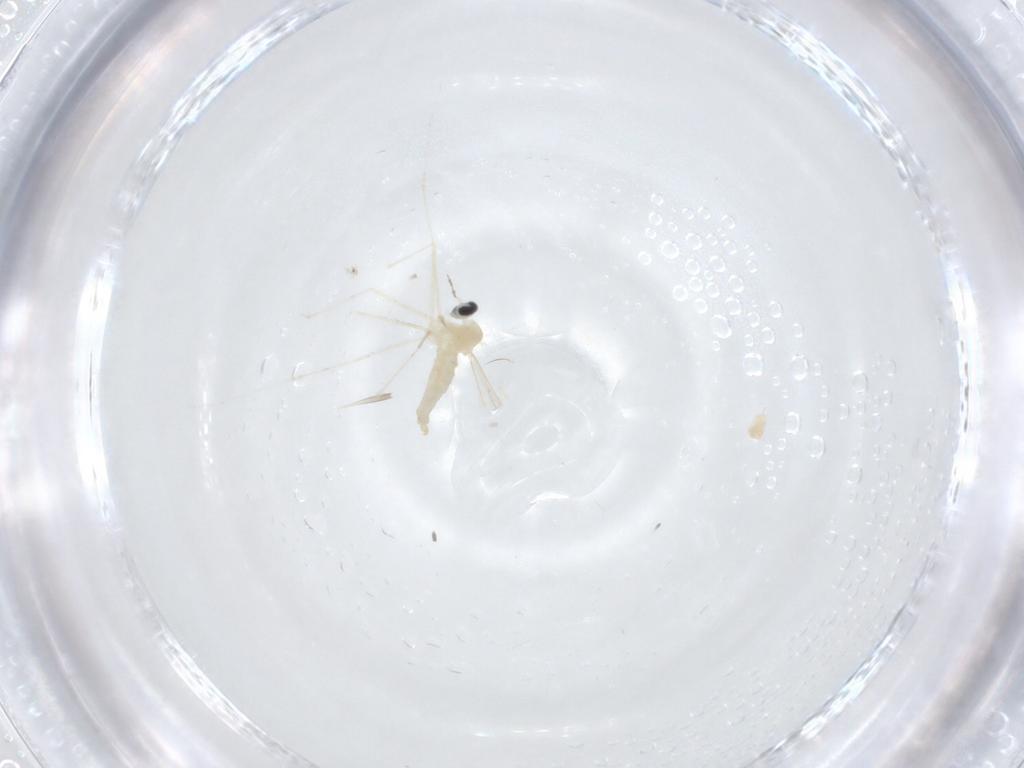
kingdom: Animalia
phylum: Arthropoda
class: Insecta
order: Diptera
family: Cecidomyiidae
